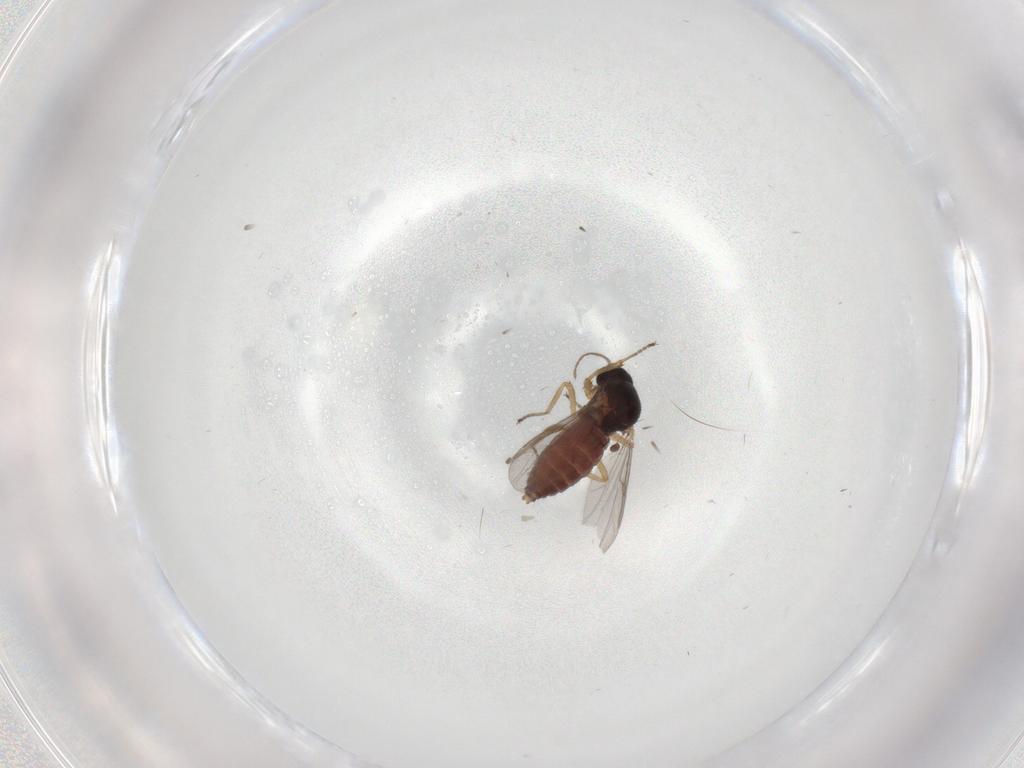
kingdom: Animalia
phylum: Arthropoda
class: Insecta
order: Diptera
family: Ceratopogonidae
